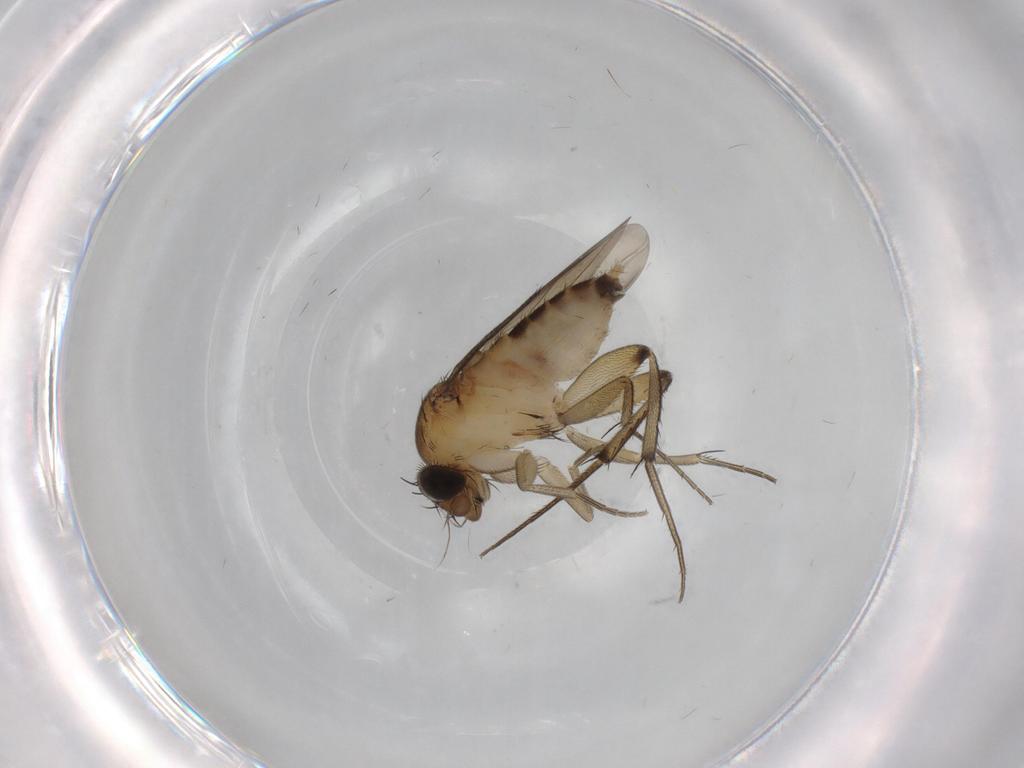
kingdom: Animalia
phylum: Arthropoda
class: Insecta
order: Diptera
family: Phoridae
